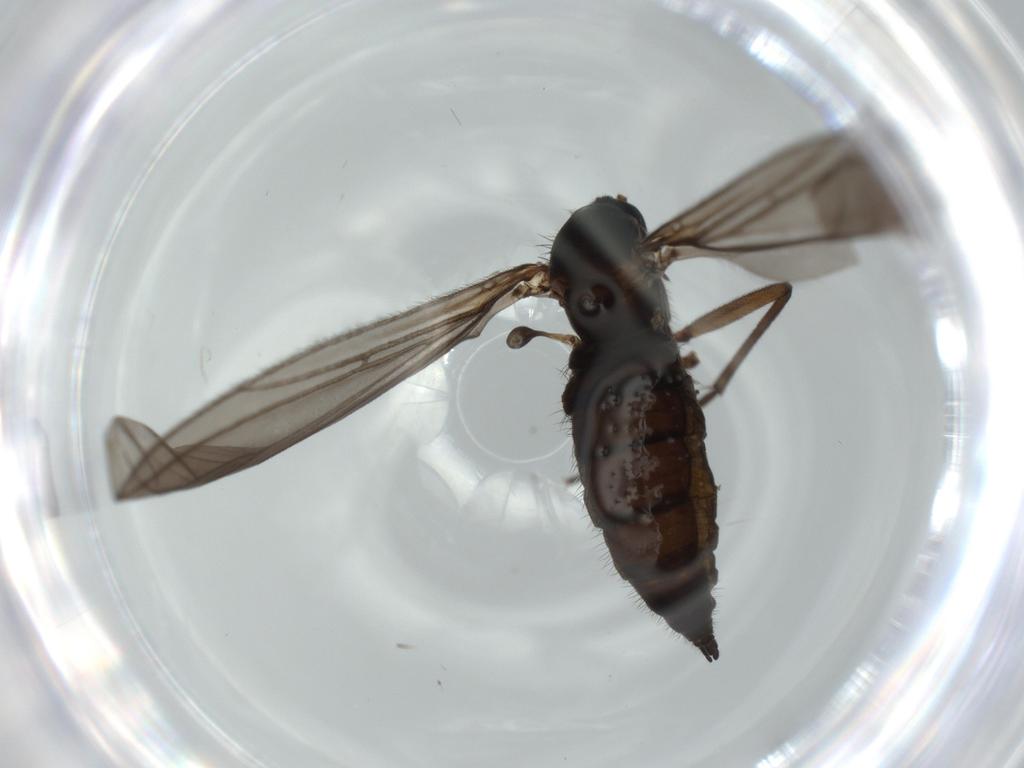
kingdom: Animalia
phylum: Arthropoda
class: Insecta
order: Diptera
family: Sciaridae
